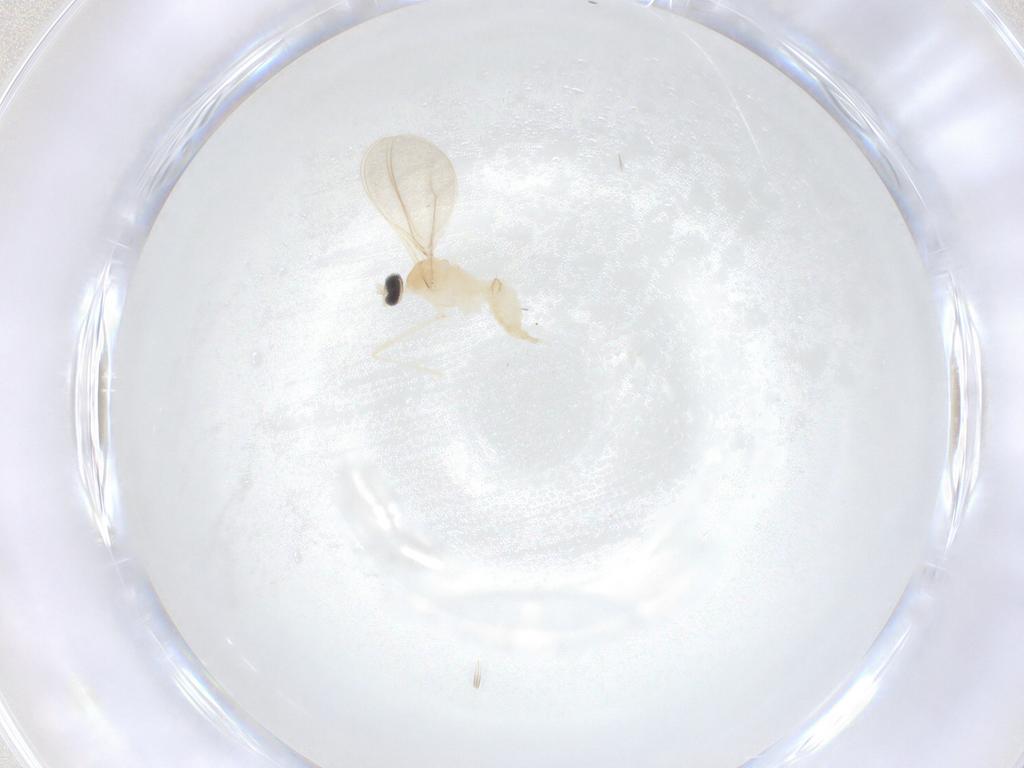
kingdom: Animalia
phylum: Arthropoda
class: Insecta
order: Diptera
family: Cecidomyiidae
